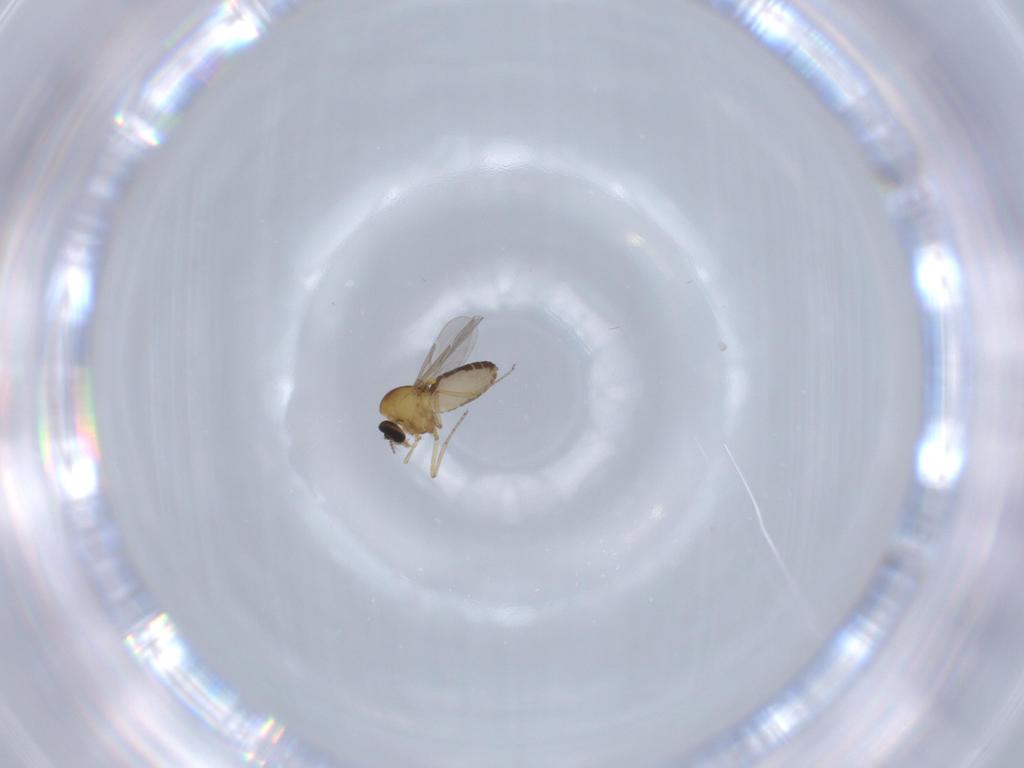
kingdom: Animalia
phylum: Arthropoda
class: Insecta
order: Diptera
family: Ceratopogonidae
